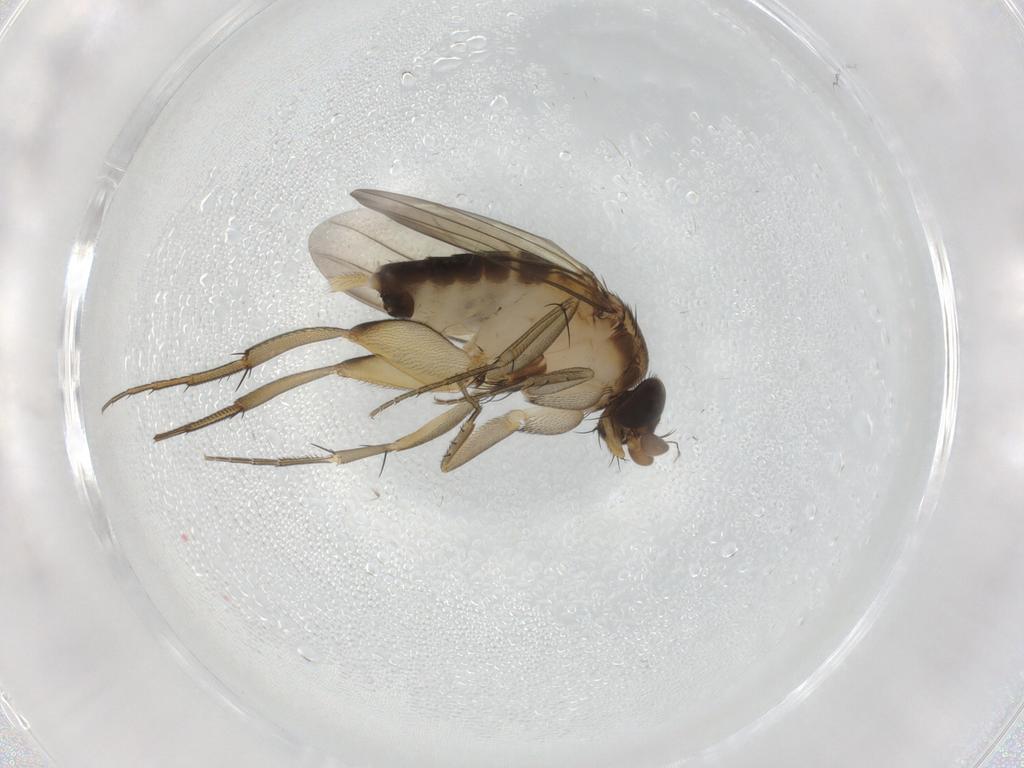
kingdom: Animalia
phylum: Arthropoda
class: Insecta
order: Diptera
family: Phoridae
